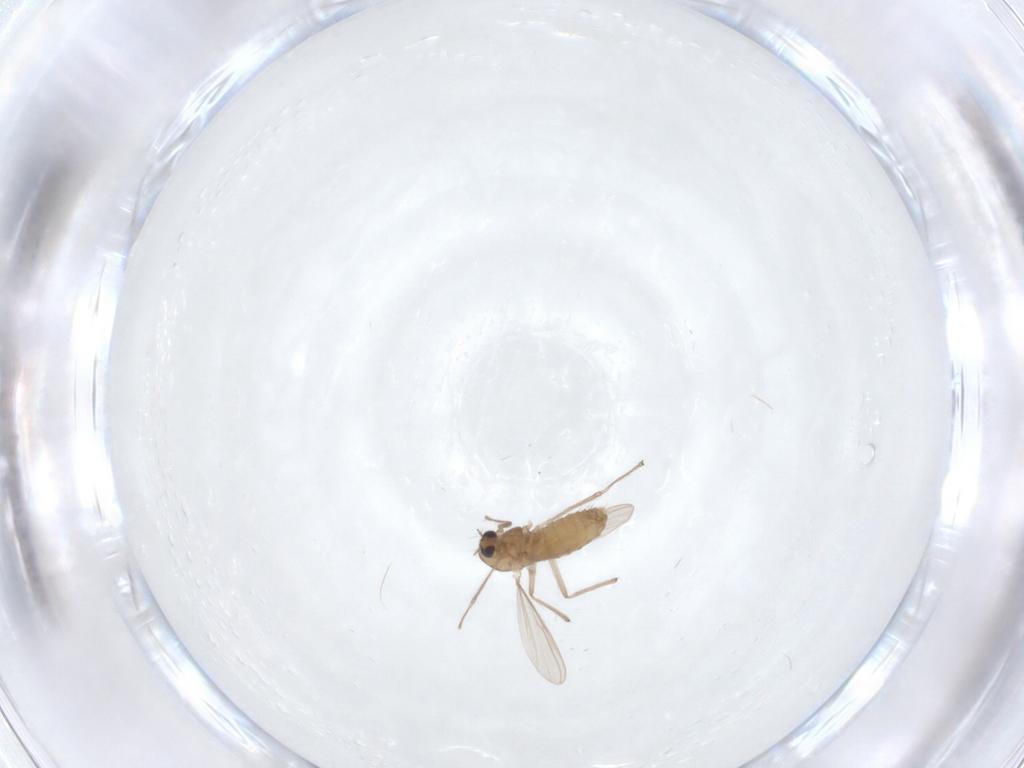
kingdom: Animalia
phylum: Arthropoda
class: Insecta
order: Diptera
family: Chironomidae
